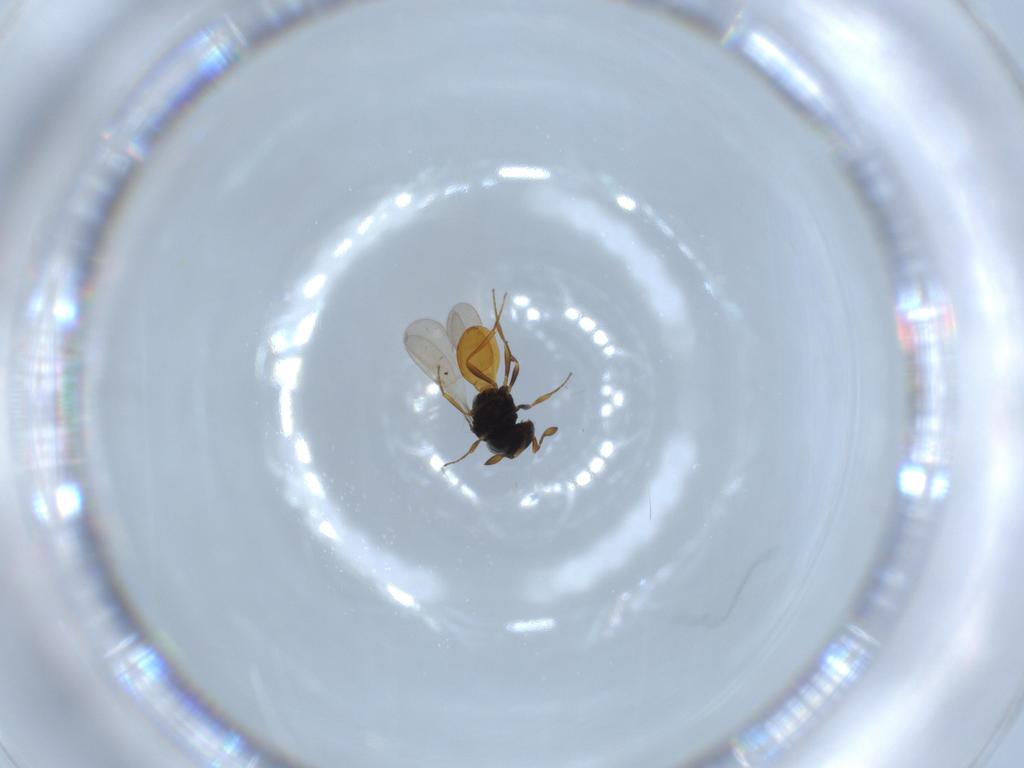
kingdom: Animalia
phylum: Arthropoda
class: Insecta
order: Hymenoptera
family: Scelionidae
